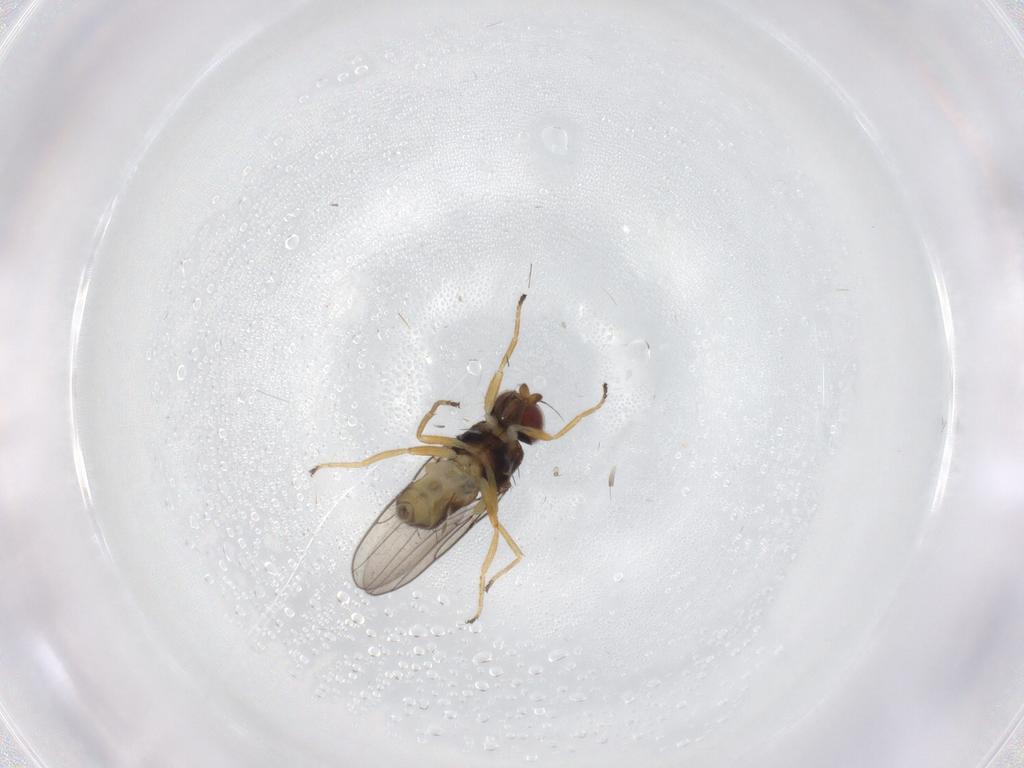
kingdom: Animalia
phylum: Arthropoda
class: Insecta
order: Diptera
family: Chloropidae
